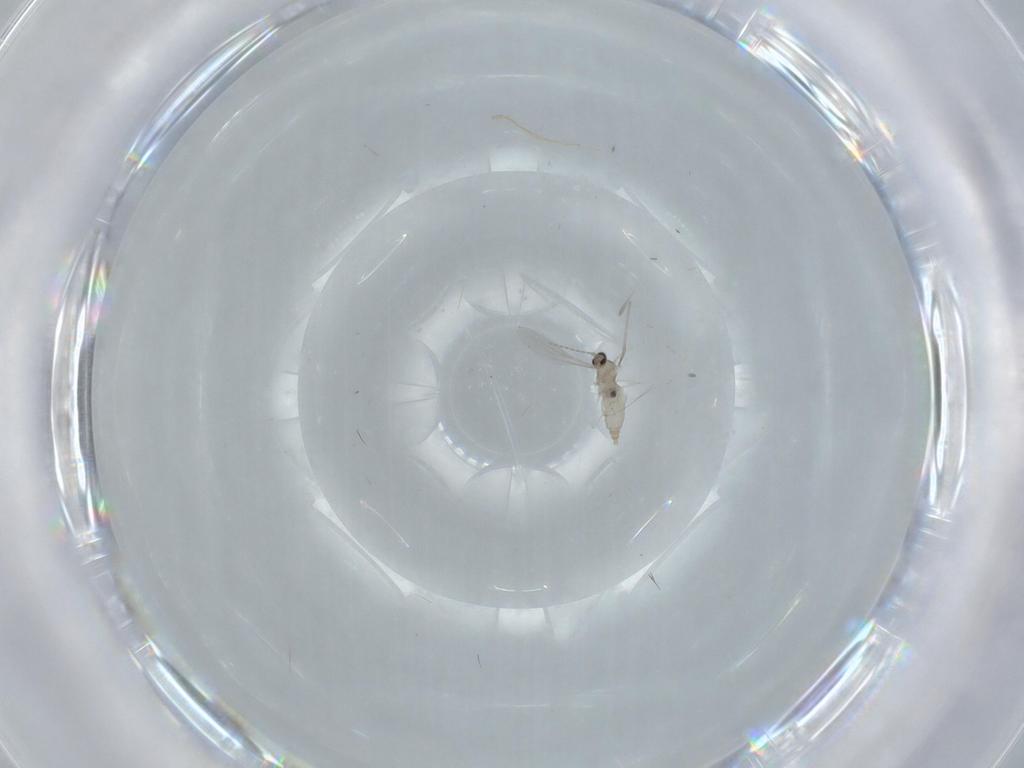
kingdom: Animalia
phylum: Arthropoda
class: Insecta
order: Diptera
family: Cecidomyiidae
